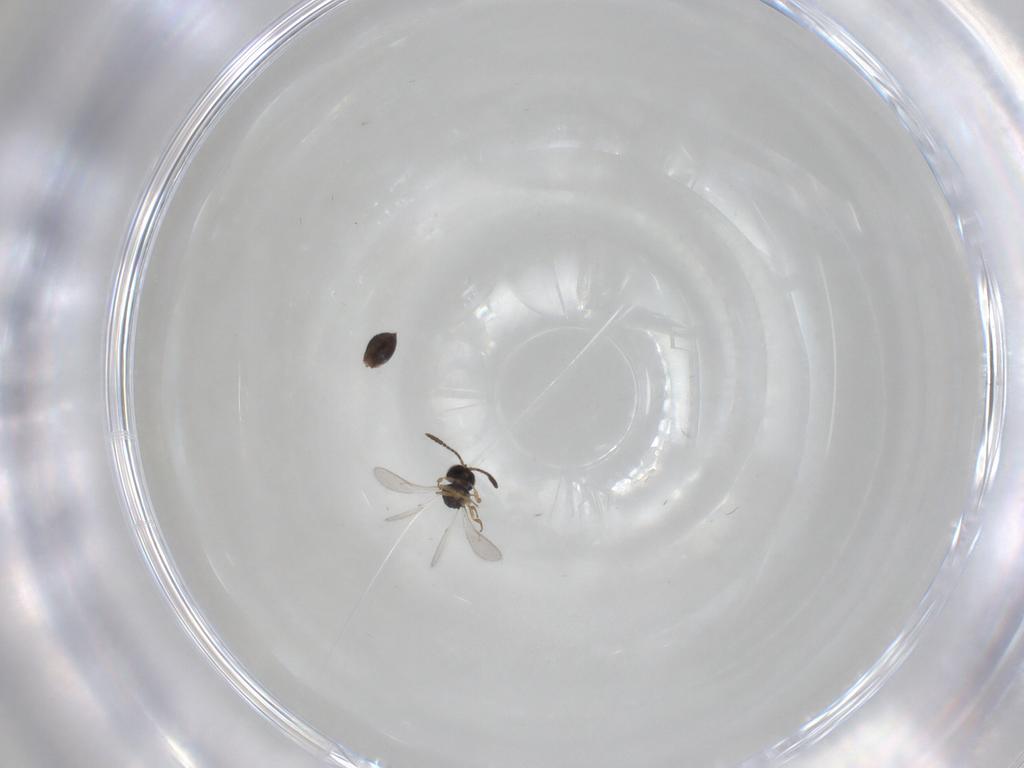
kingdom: Animalia
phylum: Arthropoda
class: Insecta
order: Hymenoptera
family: Scelionidae
